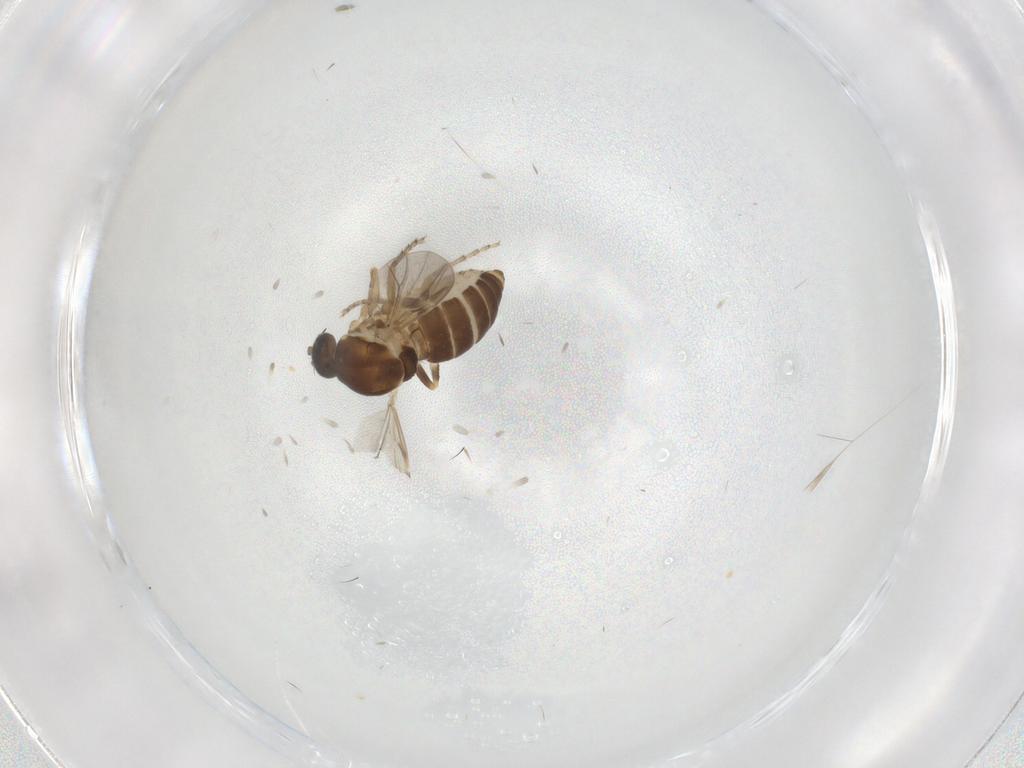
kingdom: Animalia
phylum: Arthropoda
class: Insecta
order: Diptera
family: Ceratopogonidae
